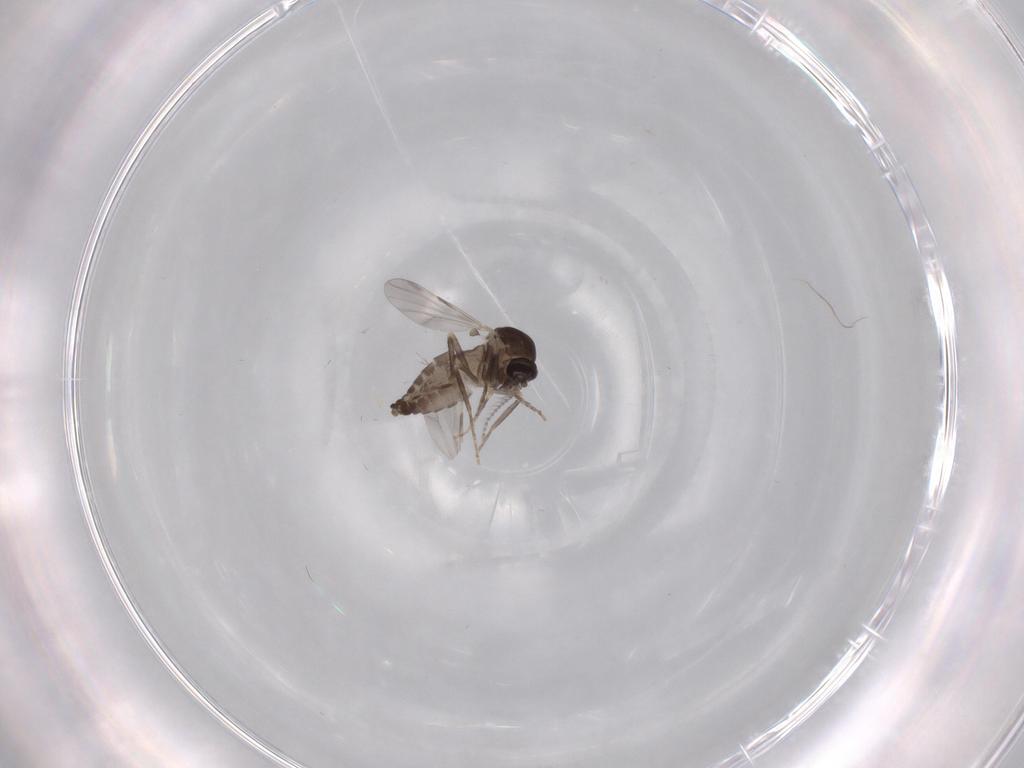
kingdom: Animalia
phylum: Arthropoda
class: Insecta
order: Diptera
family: Ceratopogonidae
